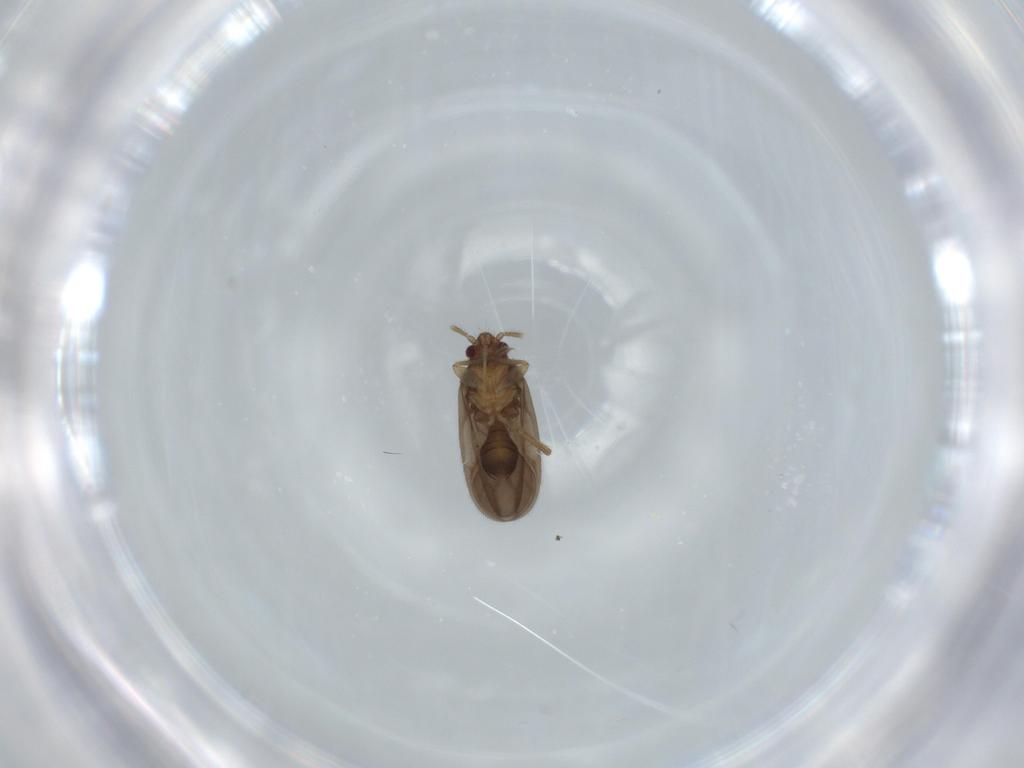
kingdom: Animalia
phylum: Arthropoda
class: Insecta
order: Hemiptera
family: Ceratocombidae
